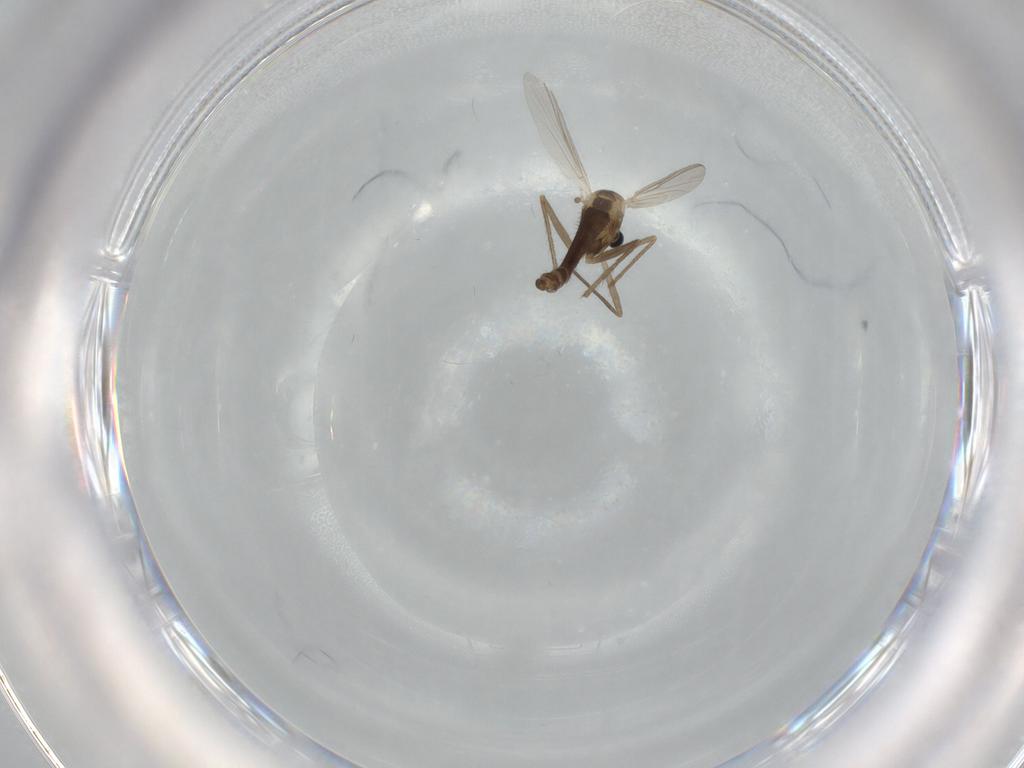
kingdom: Animalia
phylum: Arthropoda
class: Insecta
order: Diptera
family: Chironomidae
